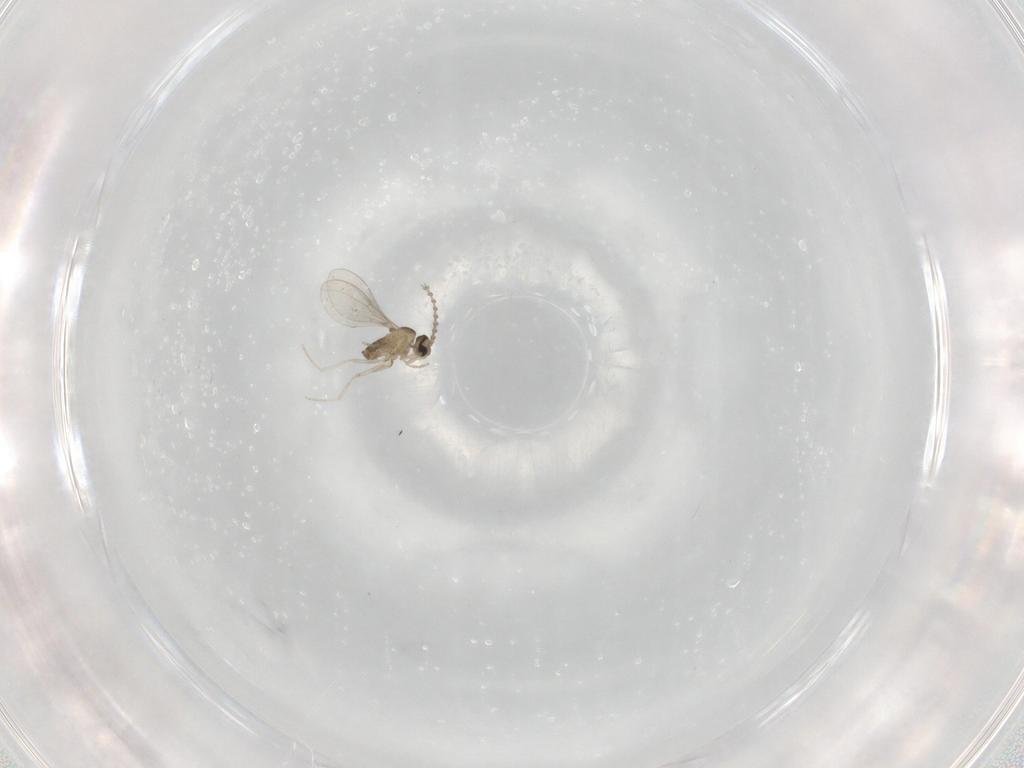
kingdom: Animalia
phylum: Arthropoda
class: Insecta
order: Diptera
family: Cecidomyiidae
